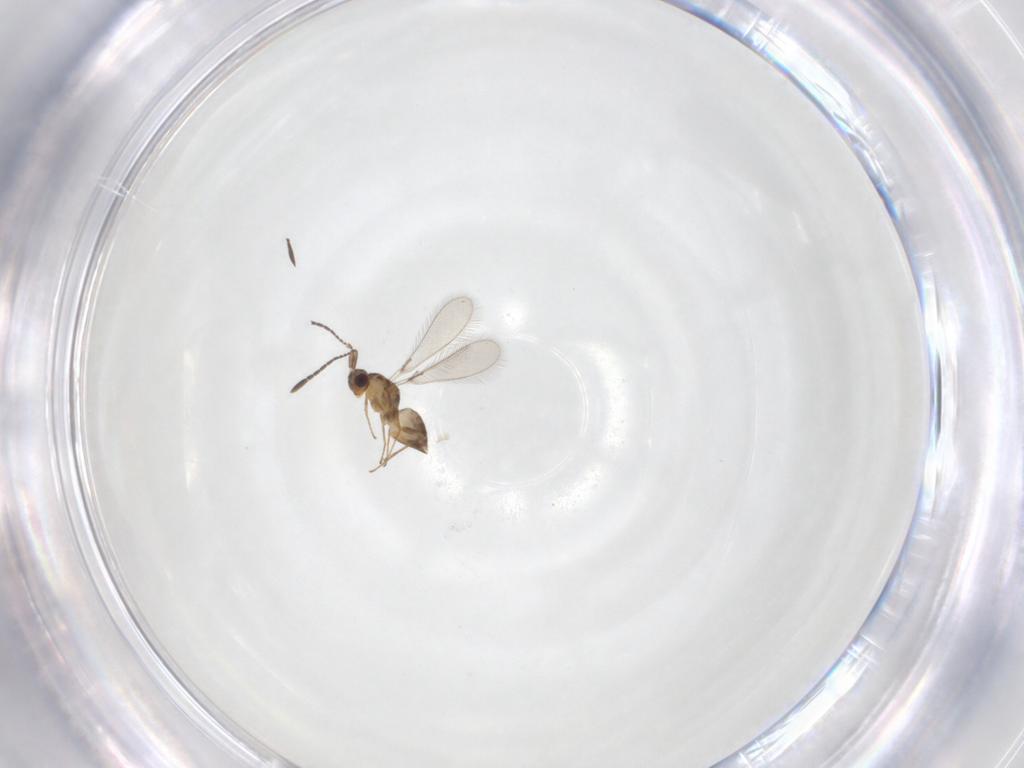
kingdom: Animalia
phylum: Arthropoda
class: Insecta
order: Hymenoptera
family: Mymaridae
